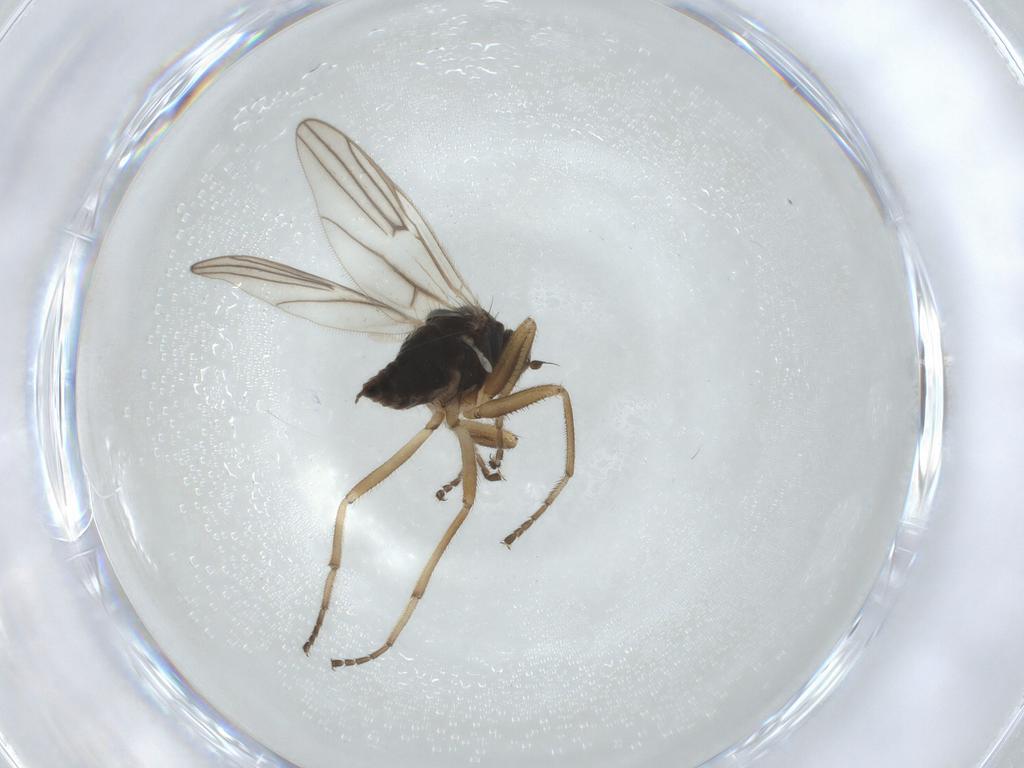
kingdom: Animalia
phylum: Arthropoda
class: Insecta
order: Diptera
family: Hybotidae
